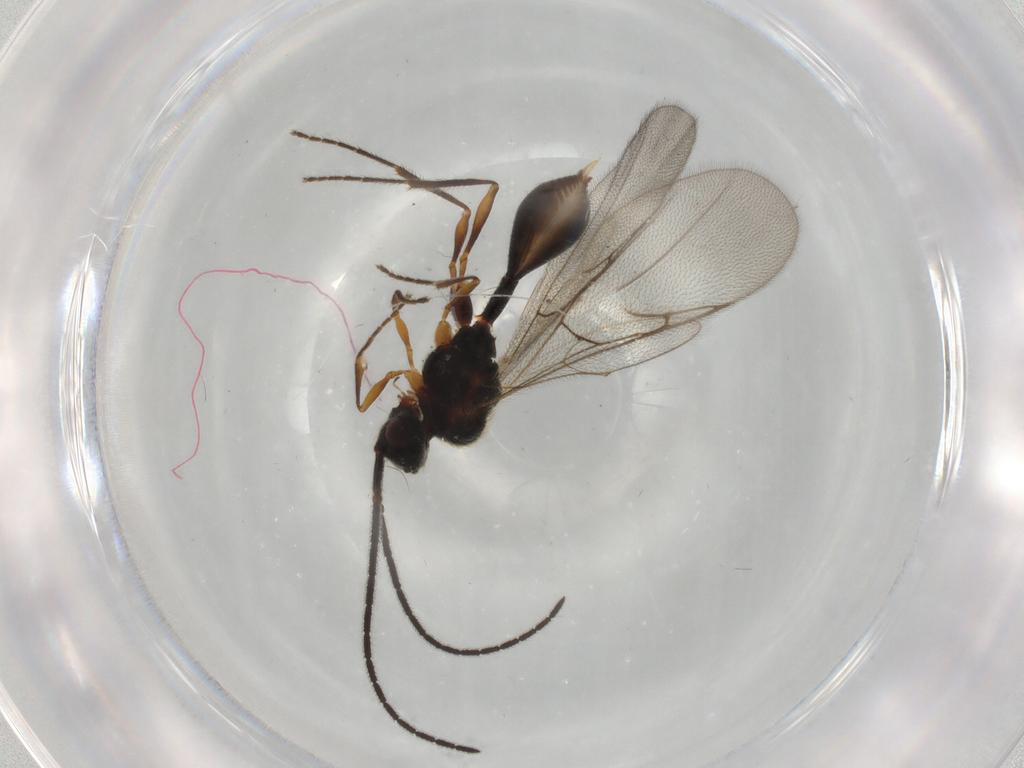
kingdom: Animalia
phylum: Arthropoda
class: Insecta
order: Hymenoptera
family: Diapriidae
